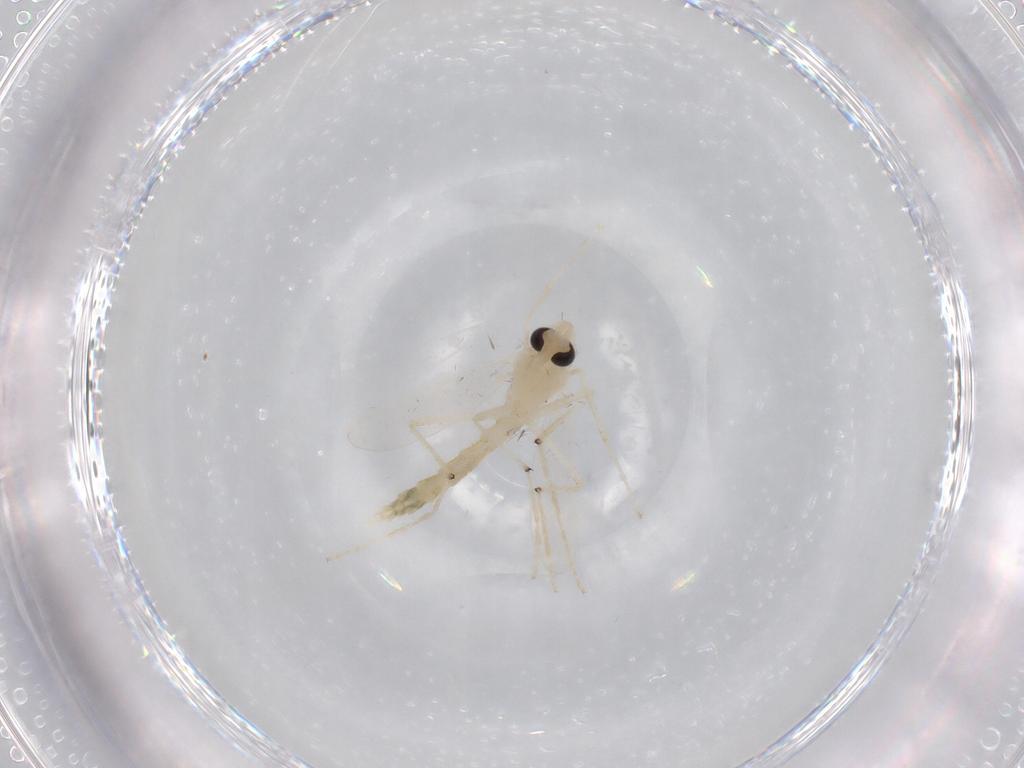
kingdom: Animalia
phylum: Arthropoda
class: Insecta
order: Diptera
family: Chironomidae
